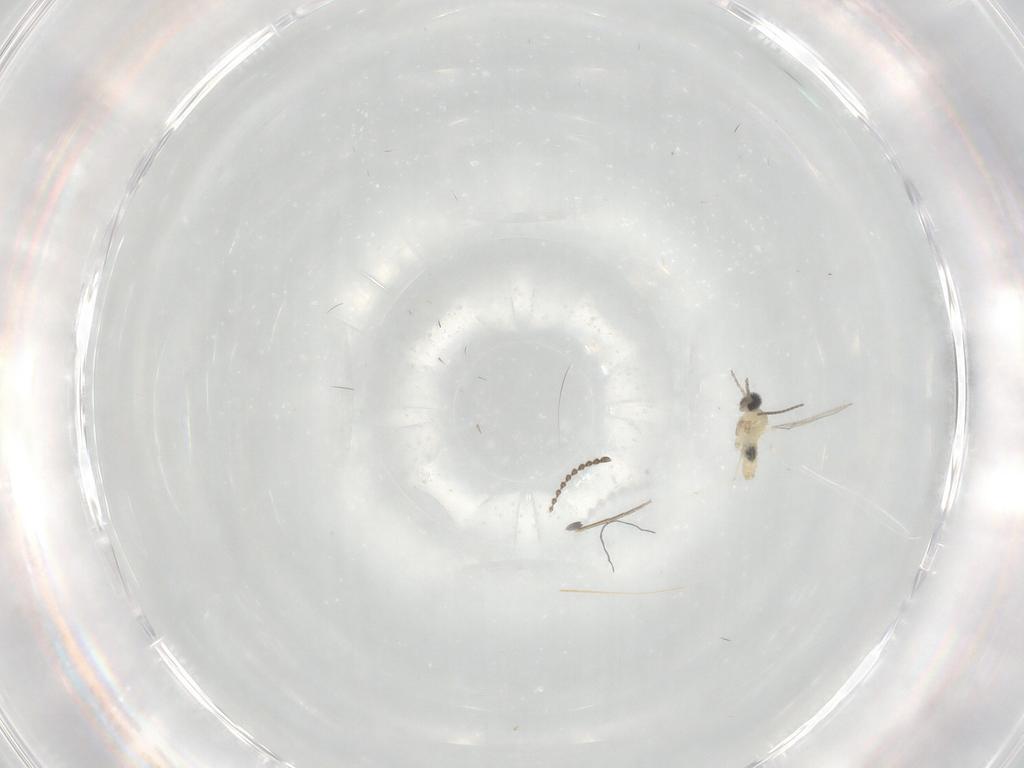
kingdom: Animalia
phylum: Arthropoda
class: Insecta
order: Diptera
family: Cecidomyiidae
